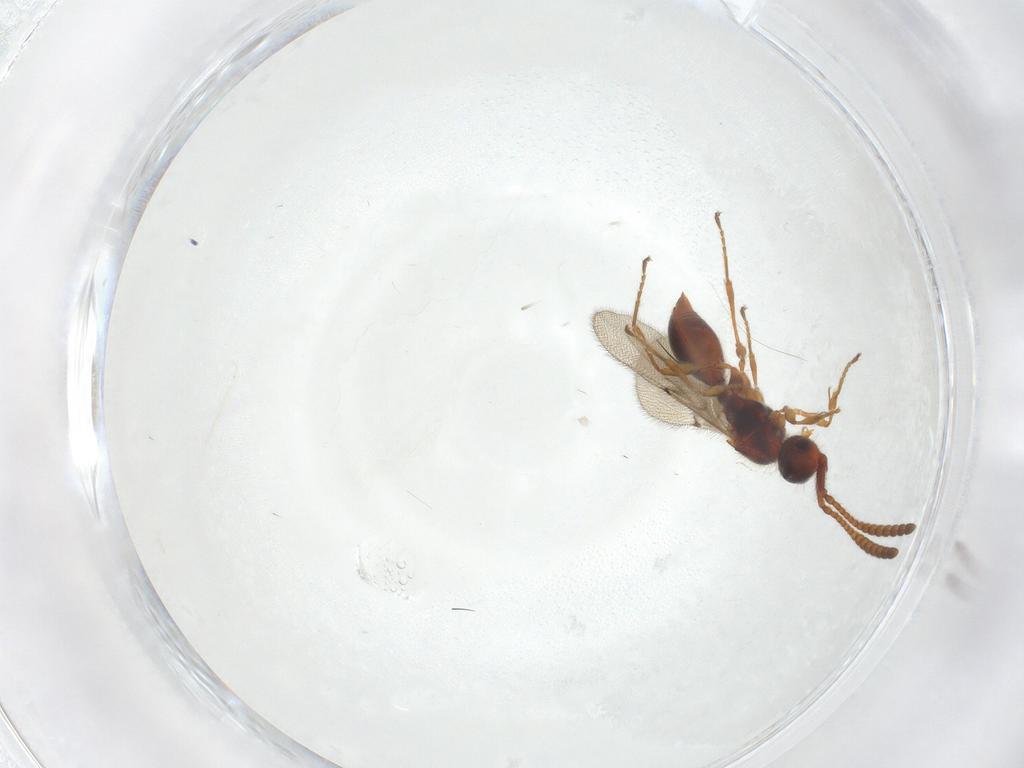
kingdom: Animalia
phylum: Arthropoda
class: Insecta
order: Hymenoptera
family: Diapriidae
